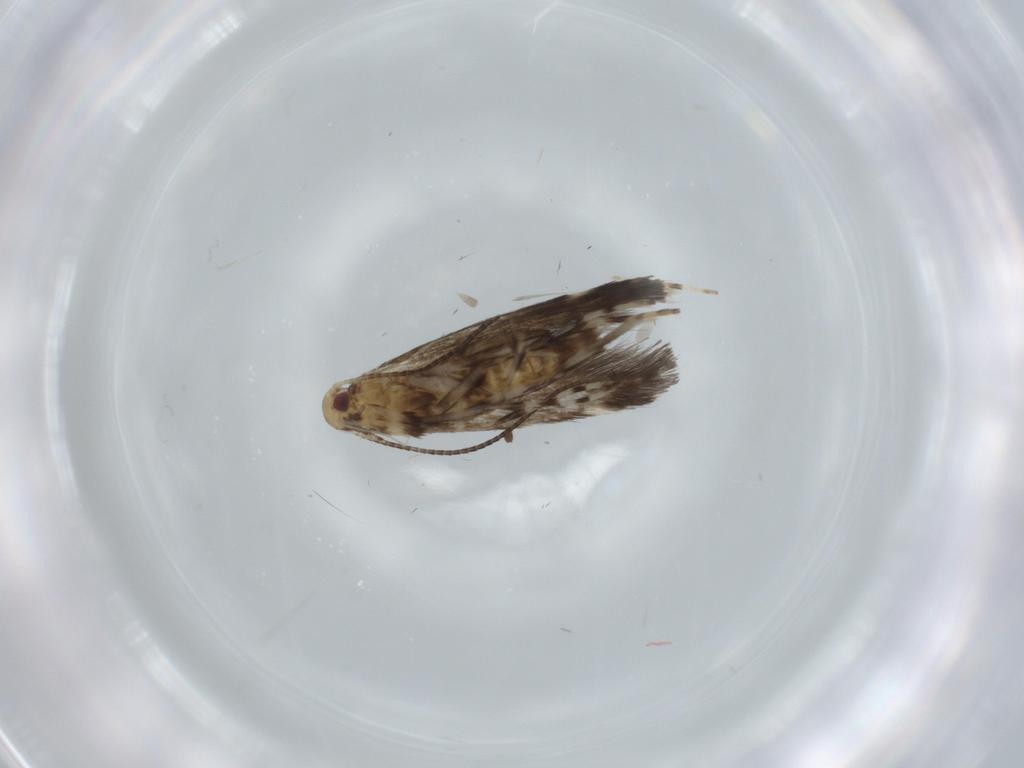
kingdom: Animalia
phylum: Arthropoda
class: Insecta
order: Lepidoptera
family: Gracillariidae
